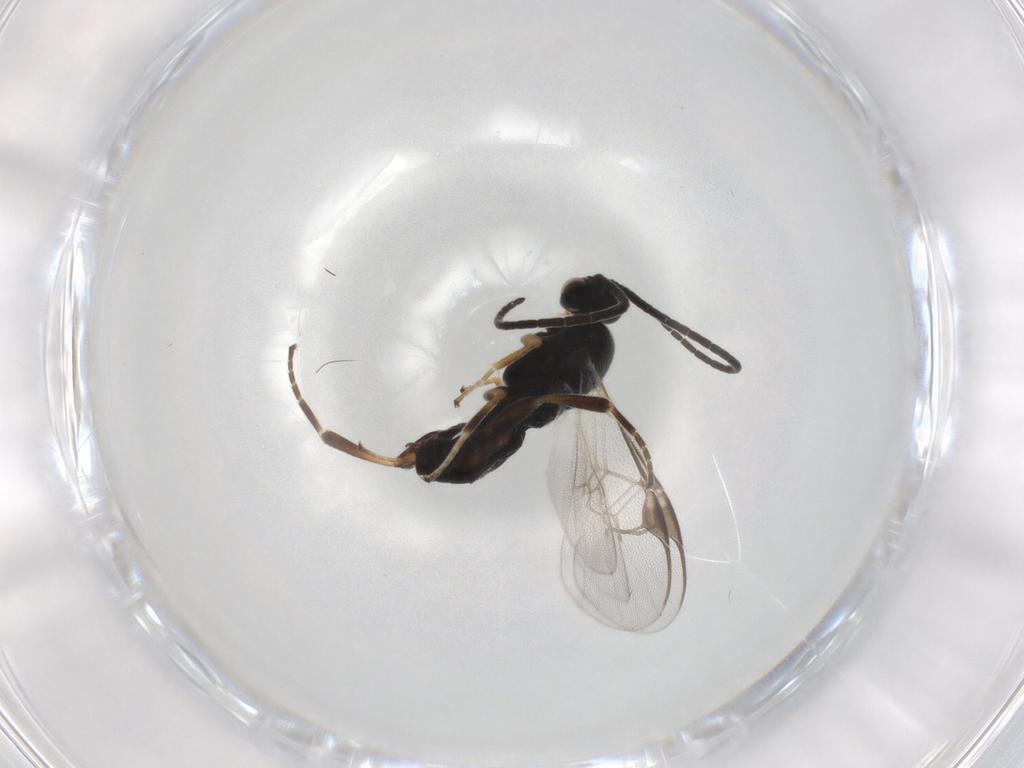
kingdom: Animalia
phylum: Arthropoda
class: Insecta
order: Hymenoptera
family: Braconidae
